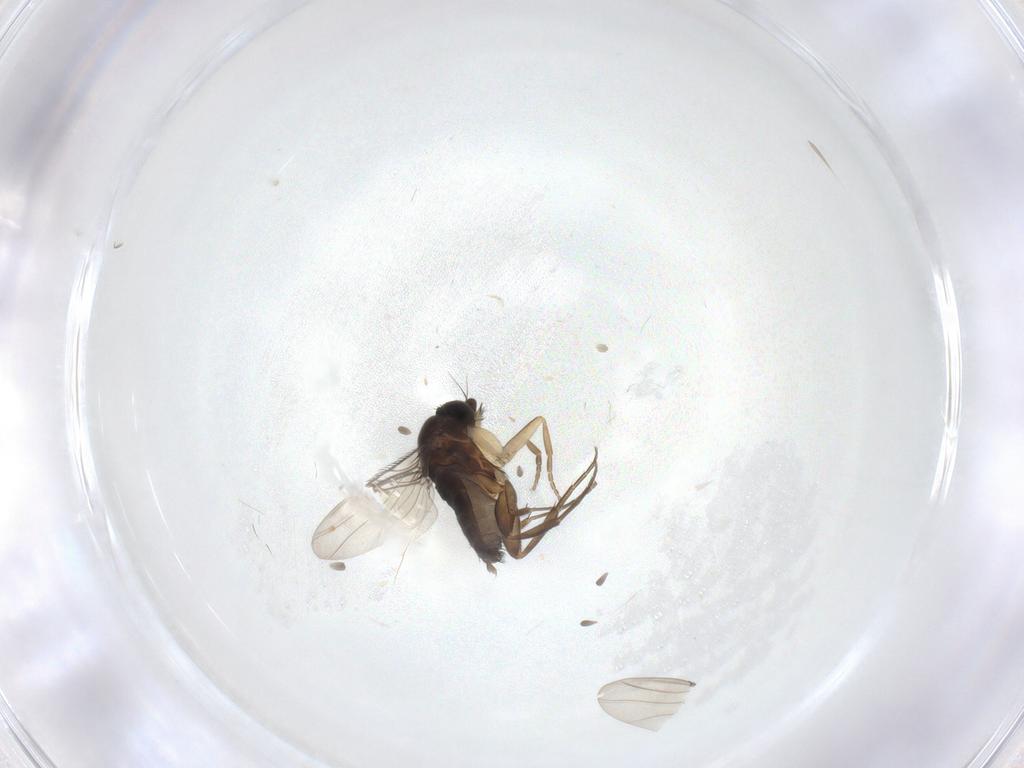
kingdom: Animalia
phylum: Arthropoda
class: Insecta
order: Diptera
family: Phoridae
